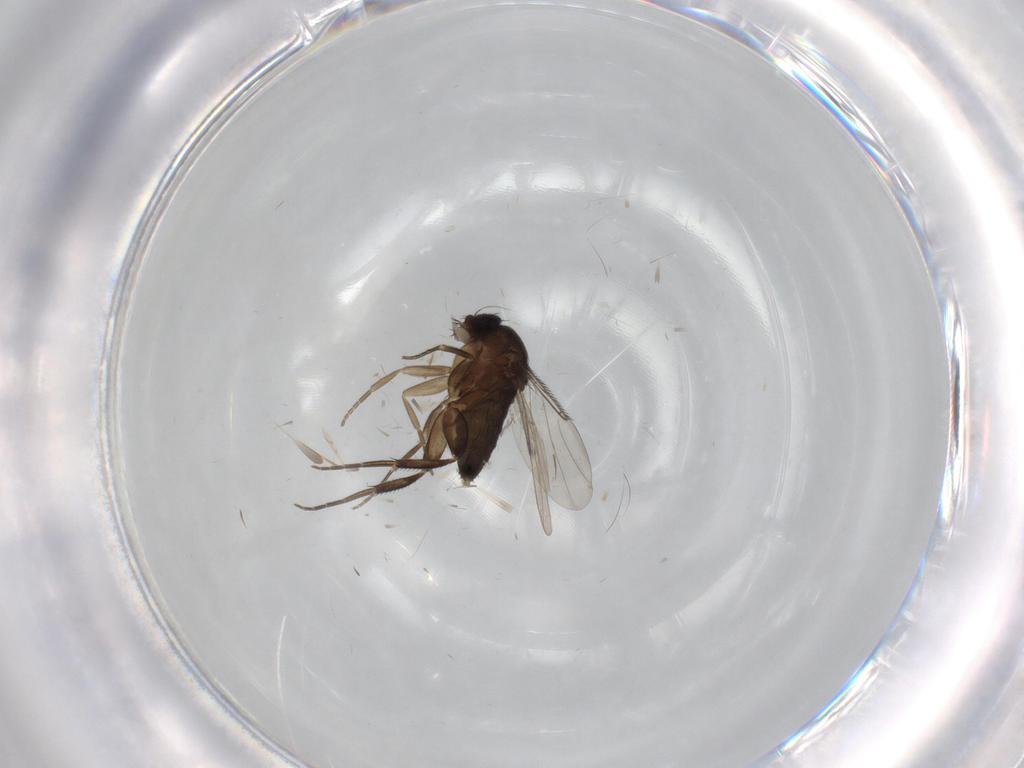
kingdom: Animalia
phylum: Arthropoda
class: Insecta
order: Diptera
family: Phoridae
